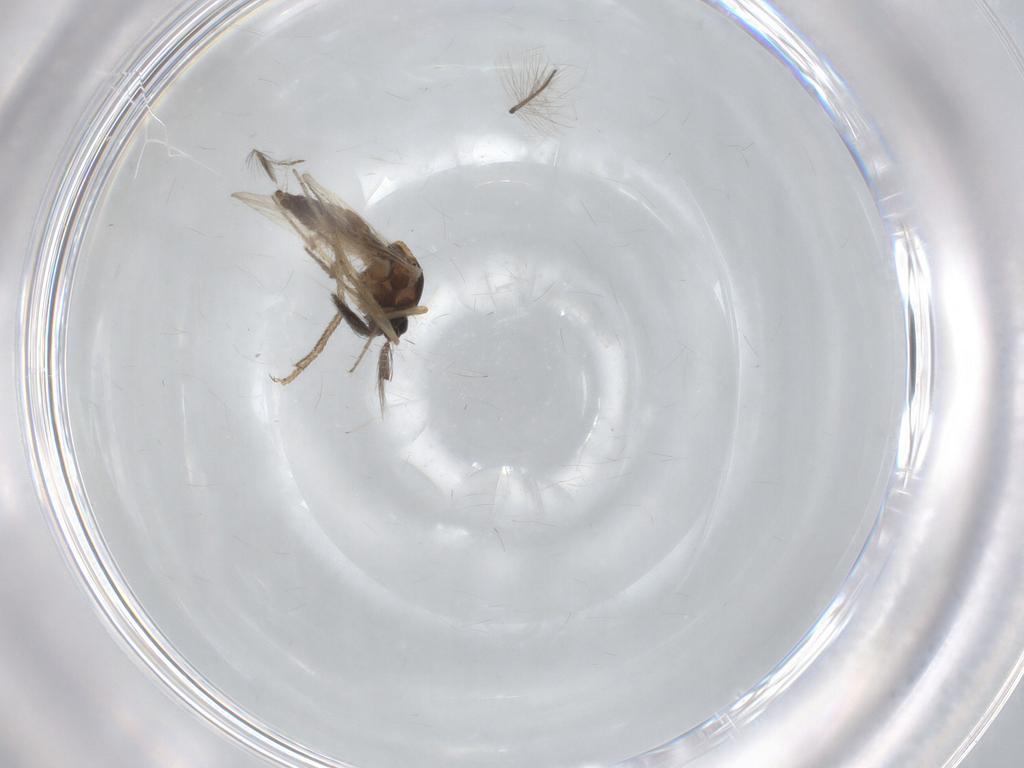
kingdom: Animalia
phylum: Arthropoda
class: Insecta
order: Diptera
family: Ceratopogonidae
